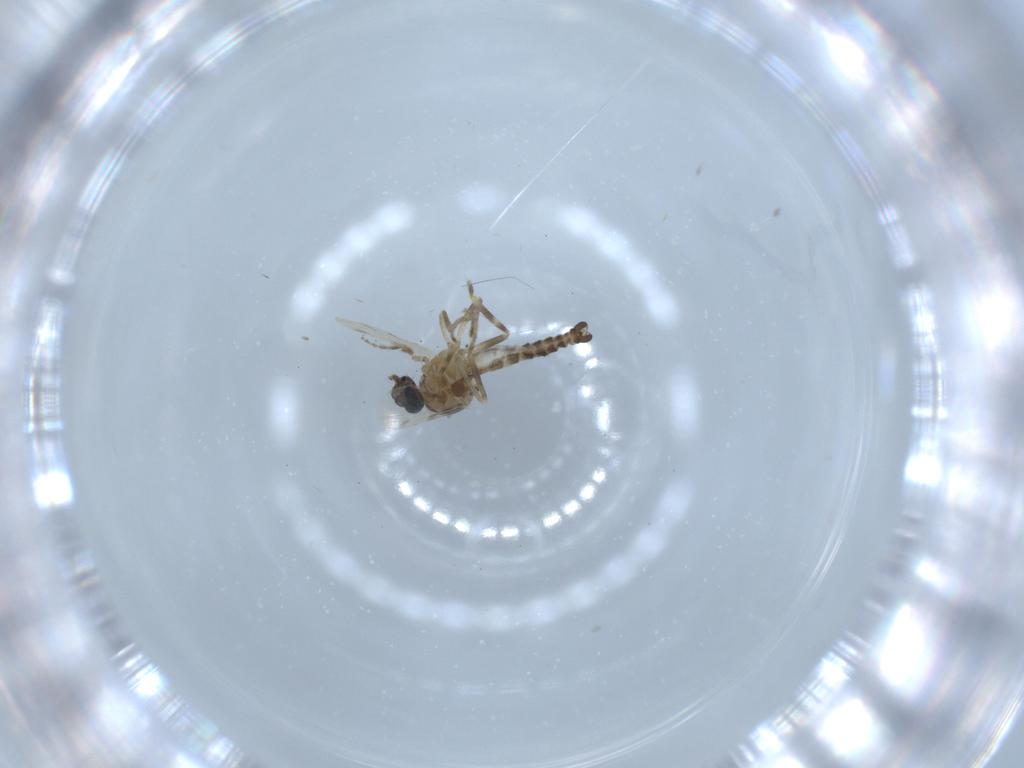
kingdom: Animalia
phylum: Arthropoda
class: Insecta
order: Diptera
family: Ceratopogonidae
